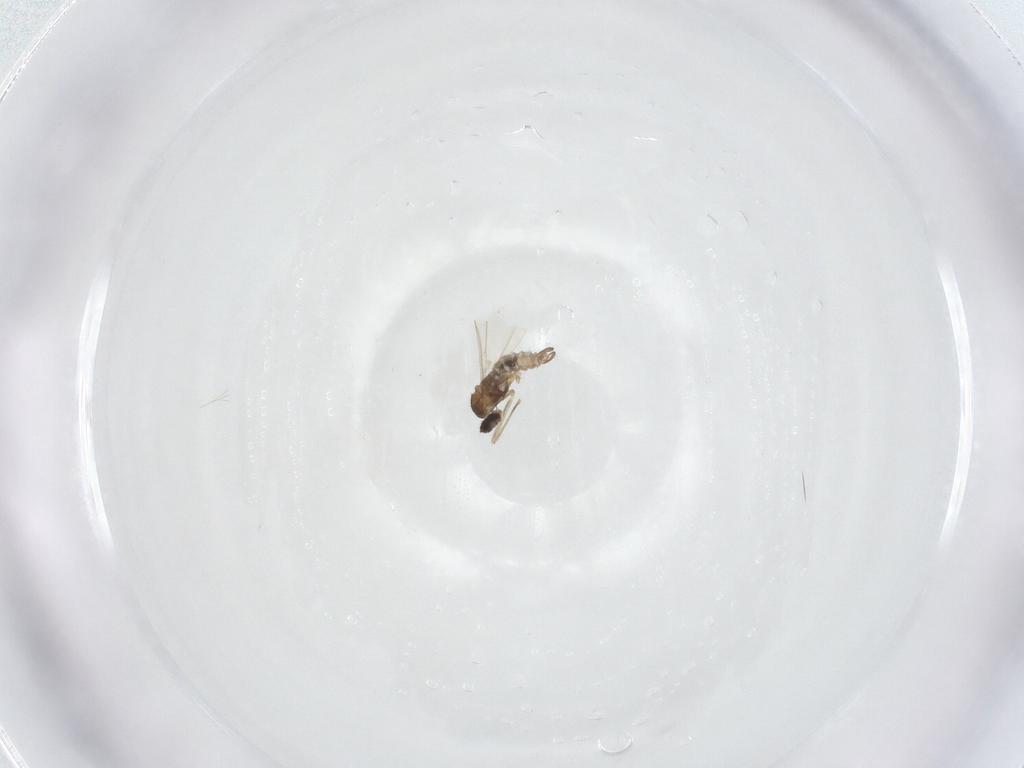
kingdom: Animalia
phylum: Arthropoda
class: Insecta
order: Diptera
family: Cecidomyiidae
